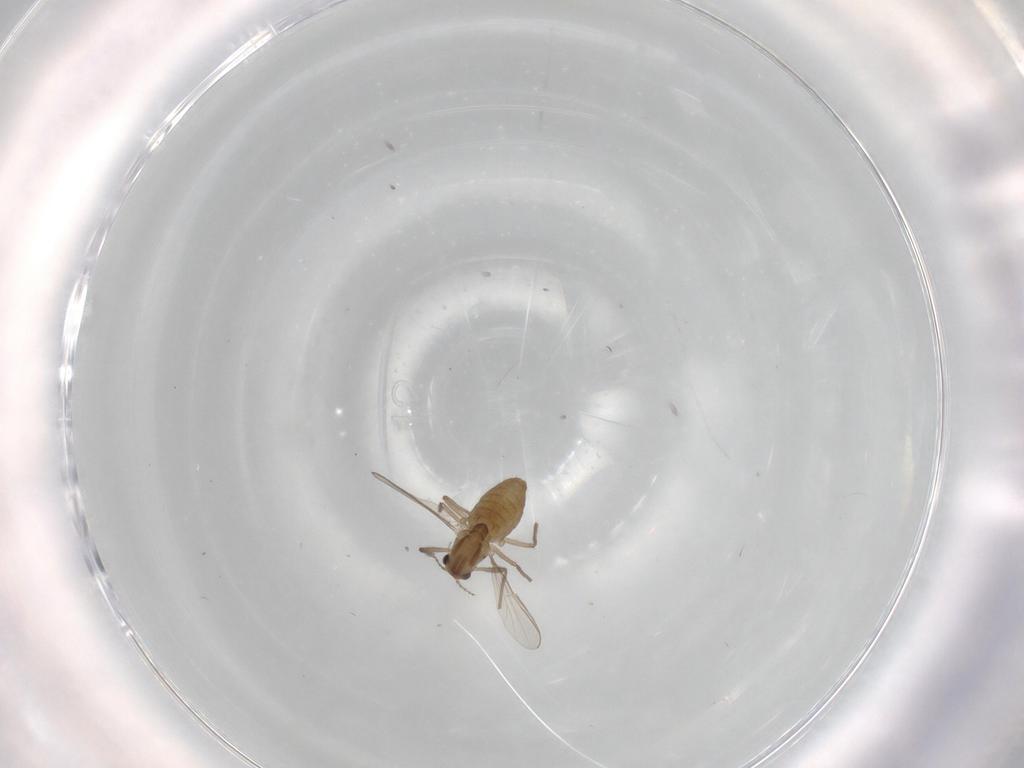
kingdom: Animalia
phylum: Arthropoda
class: Insecta
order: Diptera
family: Chironomidae
